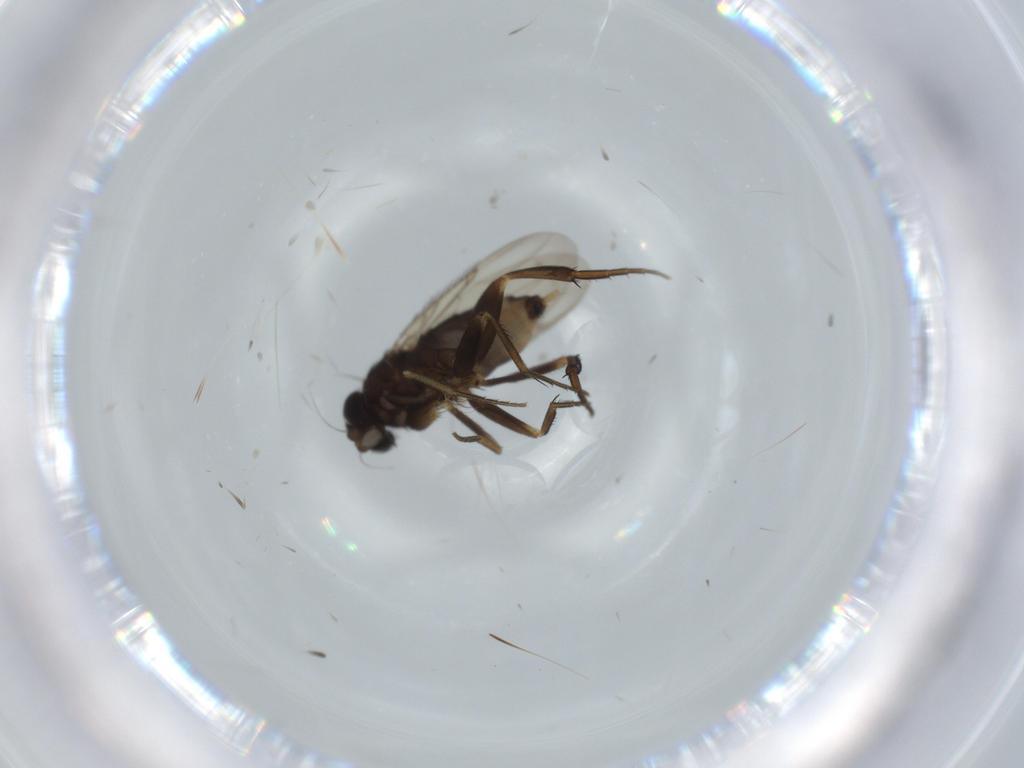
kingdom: Animalia
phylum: Arthropoda
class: Insecta
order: Diptera
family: Phoridae
